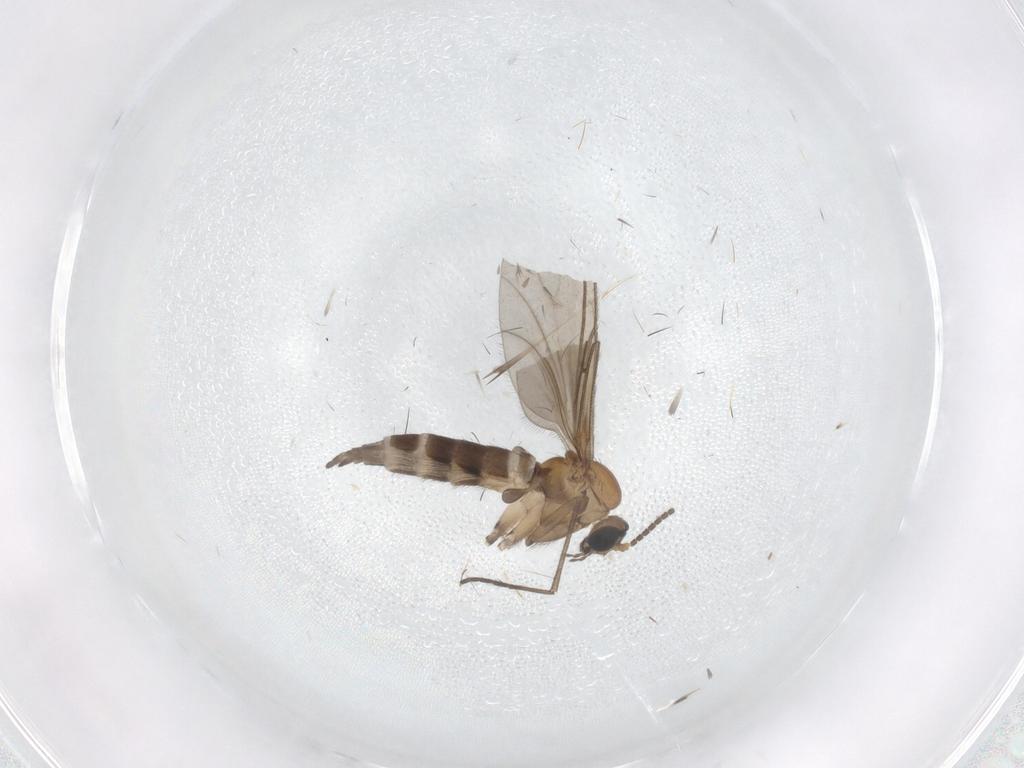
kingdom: Animalia
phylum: Arthropoda
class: Insecta
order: Diptera
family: Sciaridae
